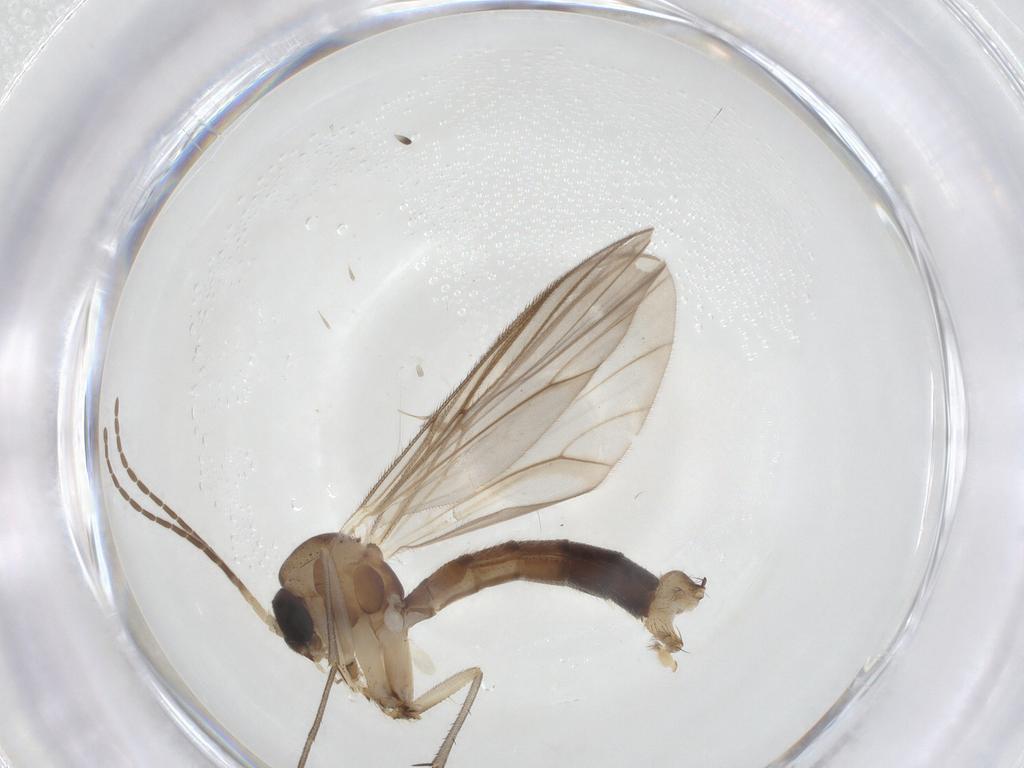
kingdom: Animalia
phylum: Arthropoda
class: Insecta
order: Diptera
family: Mycetophilidae
